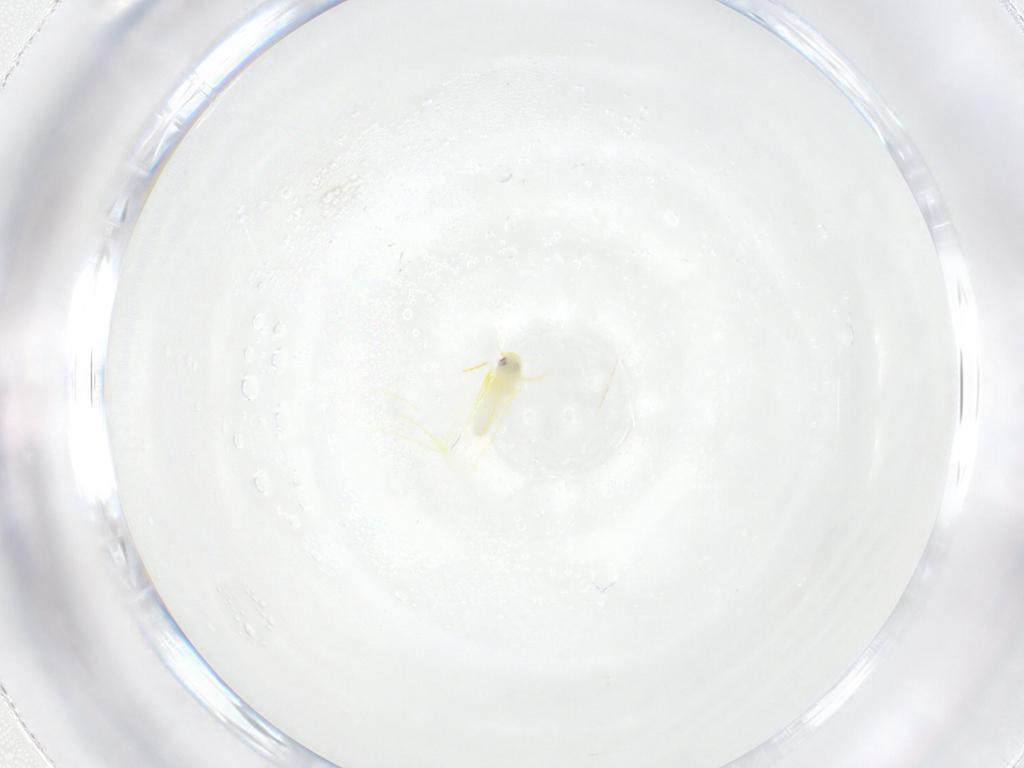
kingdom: Animalia
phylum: Arthropoda
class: Insecta
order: Hemiptera
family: Aleyrodidae
